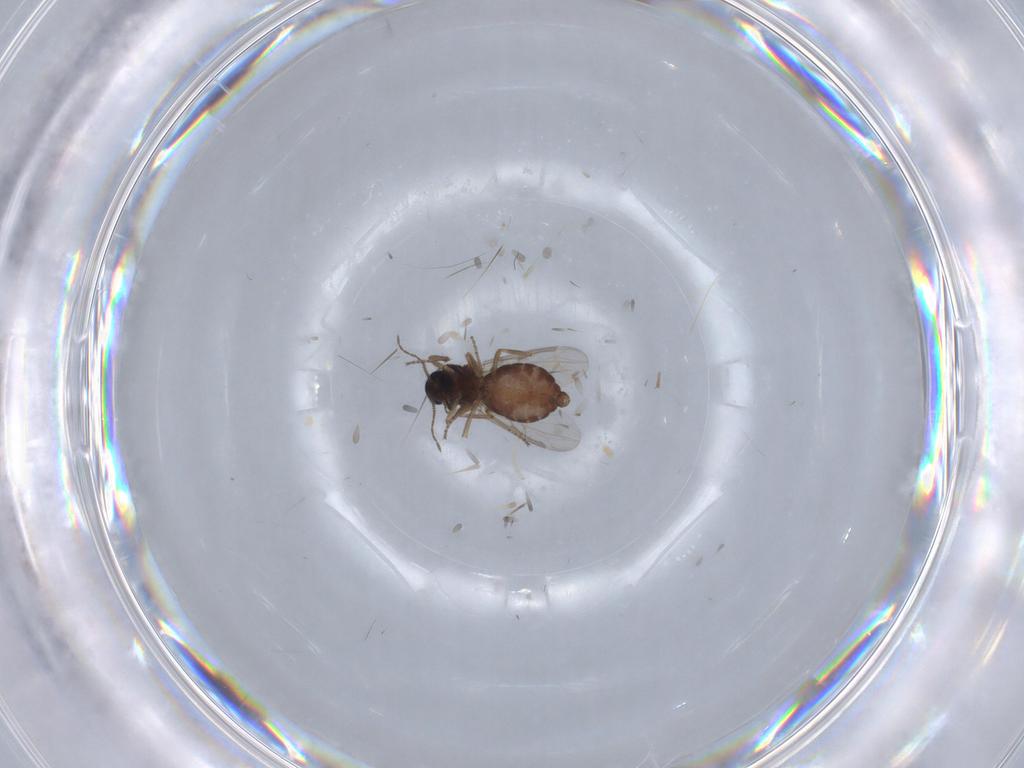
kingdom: Animalia
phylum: Arthropoda
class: Insecta
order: Diptera
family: Ceratopogonidae
